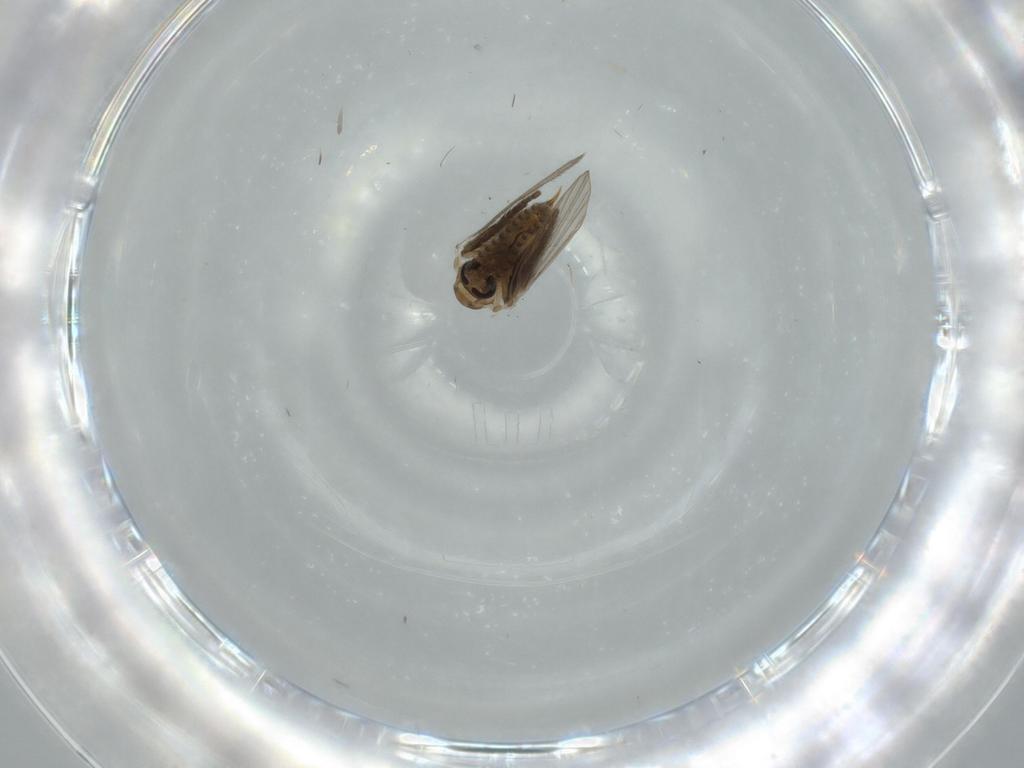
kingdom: Animalia
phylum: Arthropoda
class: Insecta
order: Diptera
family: Psychodidae
